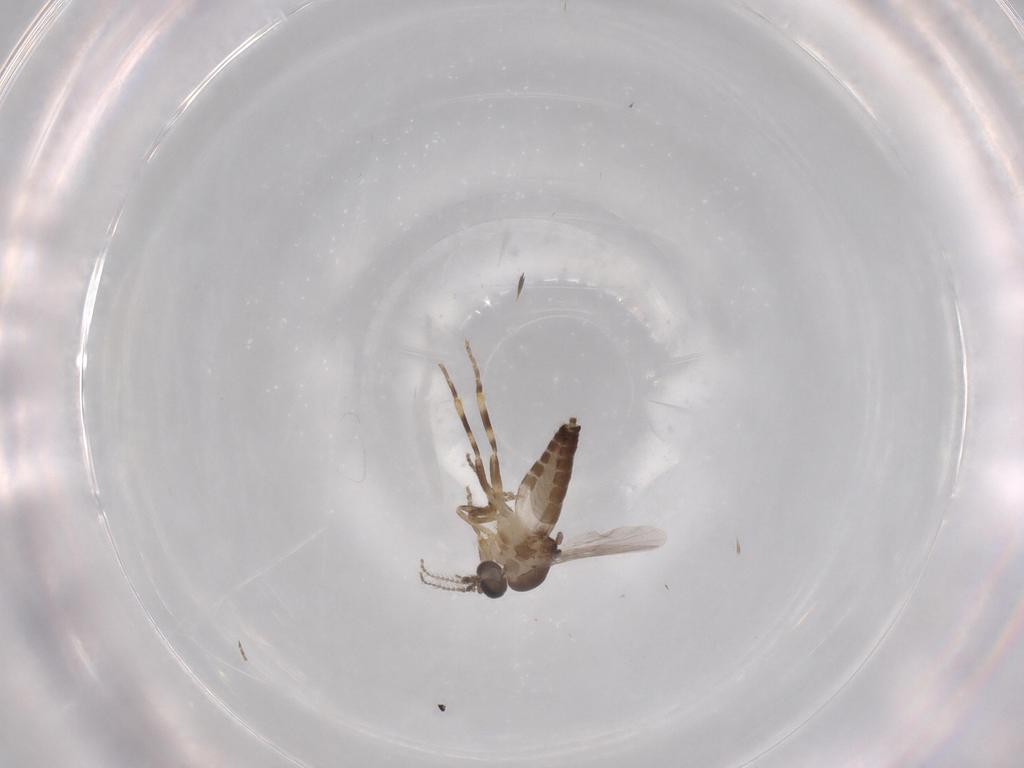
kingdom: Animalia
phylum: Arthropoda
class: Insecta
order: Diptera
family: Ceratopogonidae
